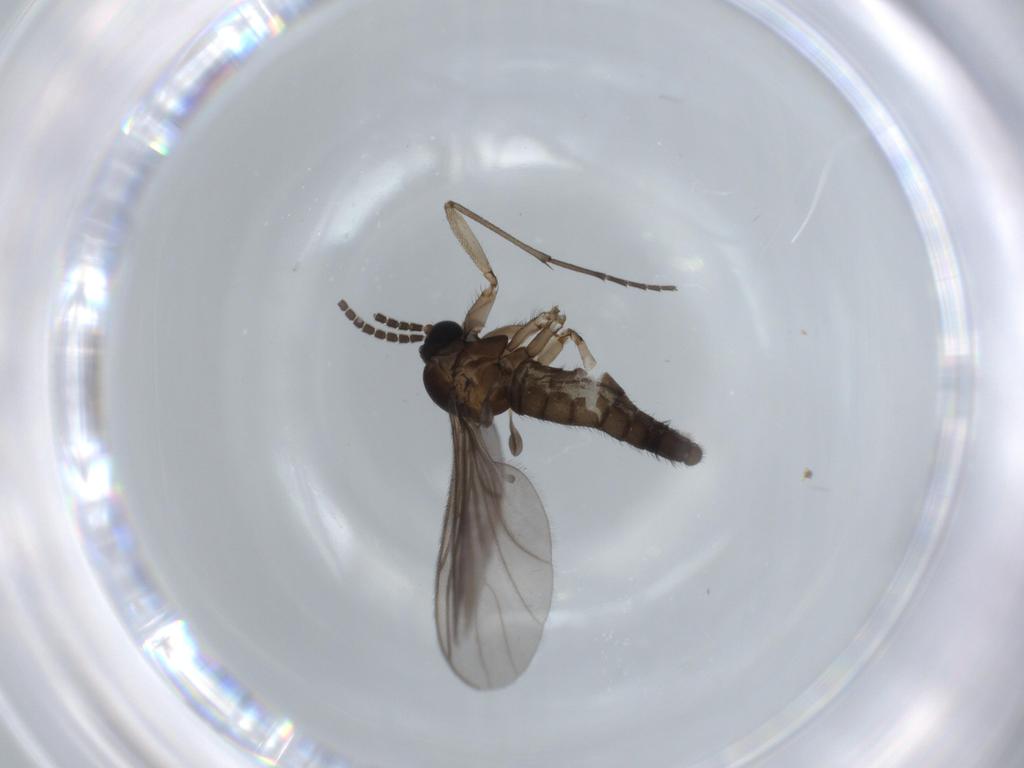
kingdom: Animalia
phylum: Arthropoda
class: Insecta
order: Diptera
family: Sciaridae
